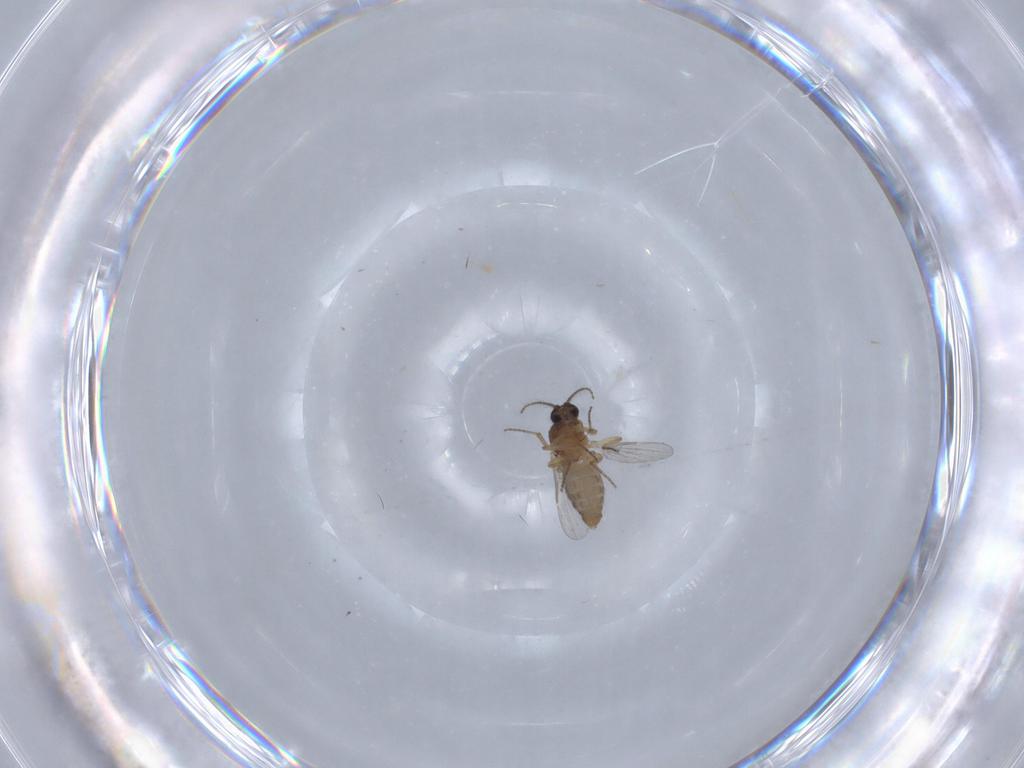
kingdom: Animalia
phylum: Arthropoda
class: Insecta
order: Diptera
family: Ceratopogonidae
